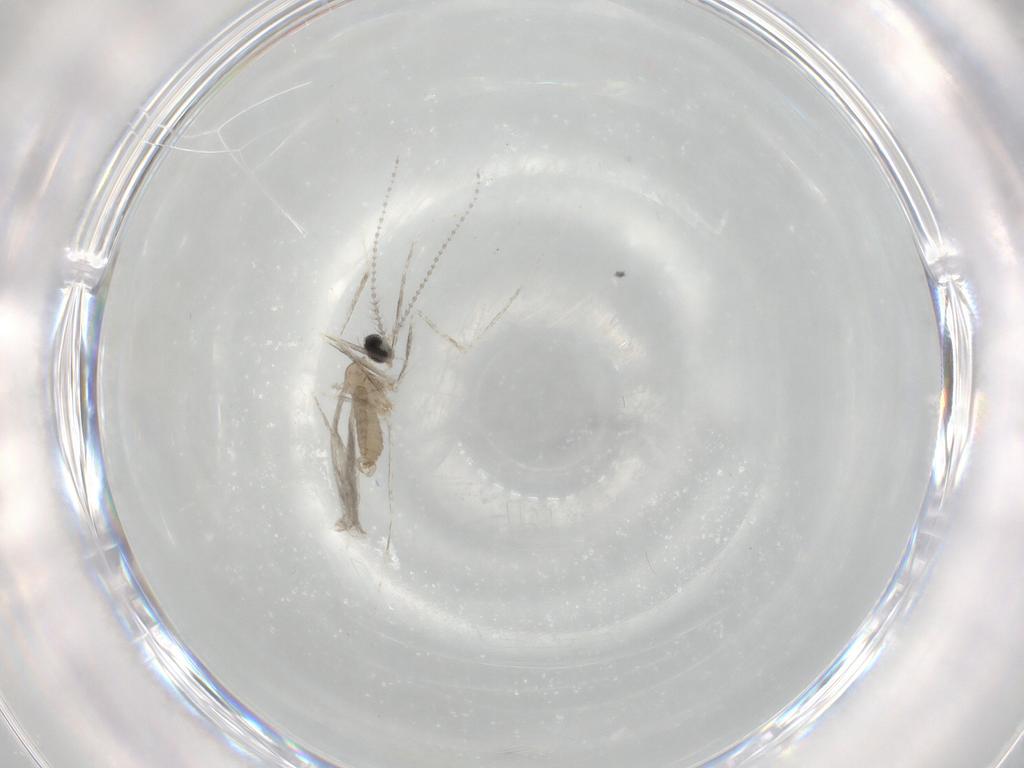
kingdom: Animalia
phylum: Arthropoda
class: Insecta
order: Diptera
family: Cecidomyiidae
